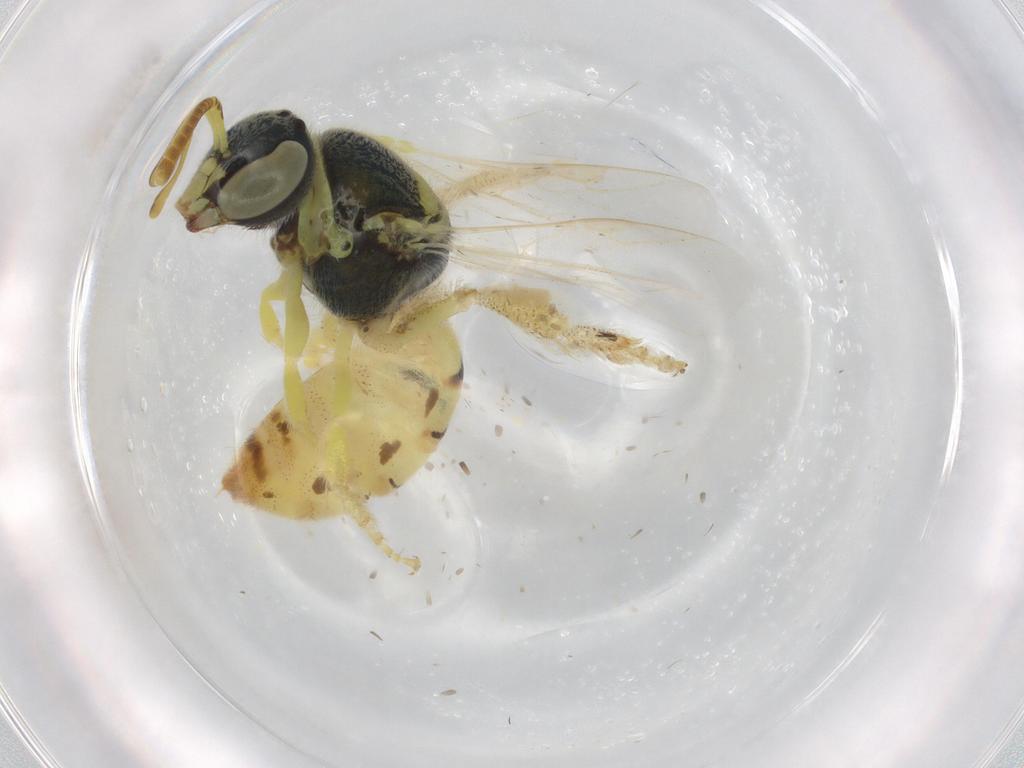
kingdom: Animalia
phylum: Arthropoda
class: Insecta
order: Hymenoptera
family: Halictidae
